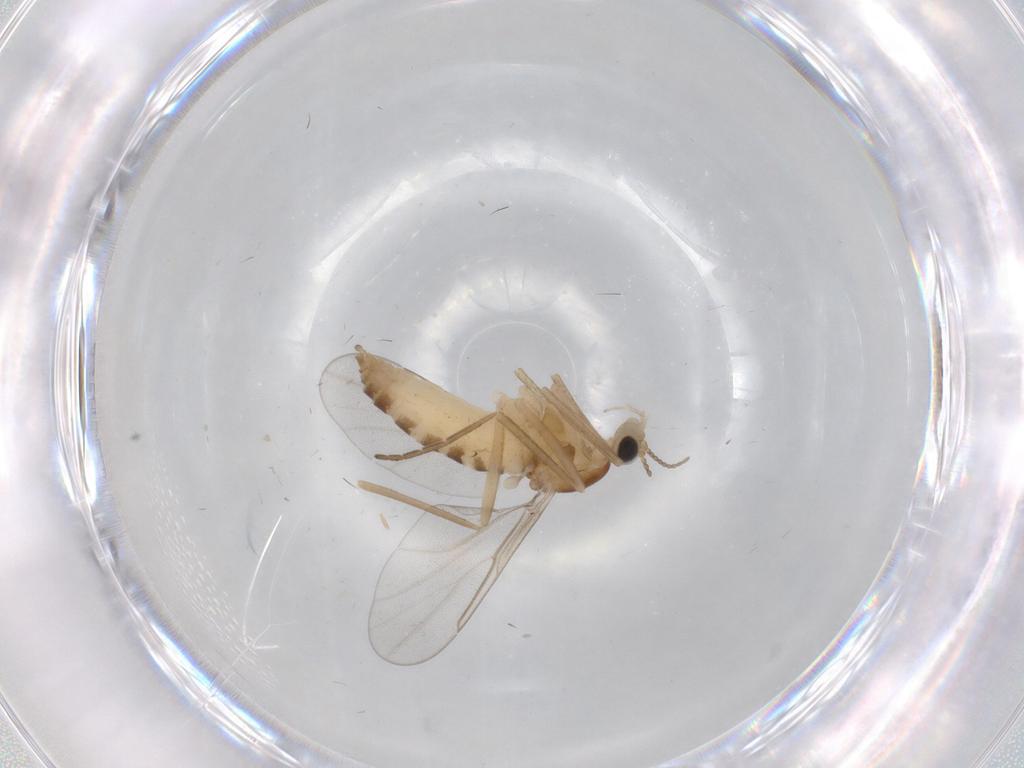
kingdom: Animalia
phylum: Arthropoda
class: Insecta
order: Diptera
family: Cecidomyiidae
